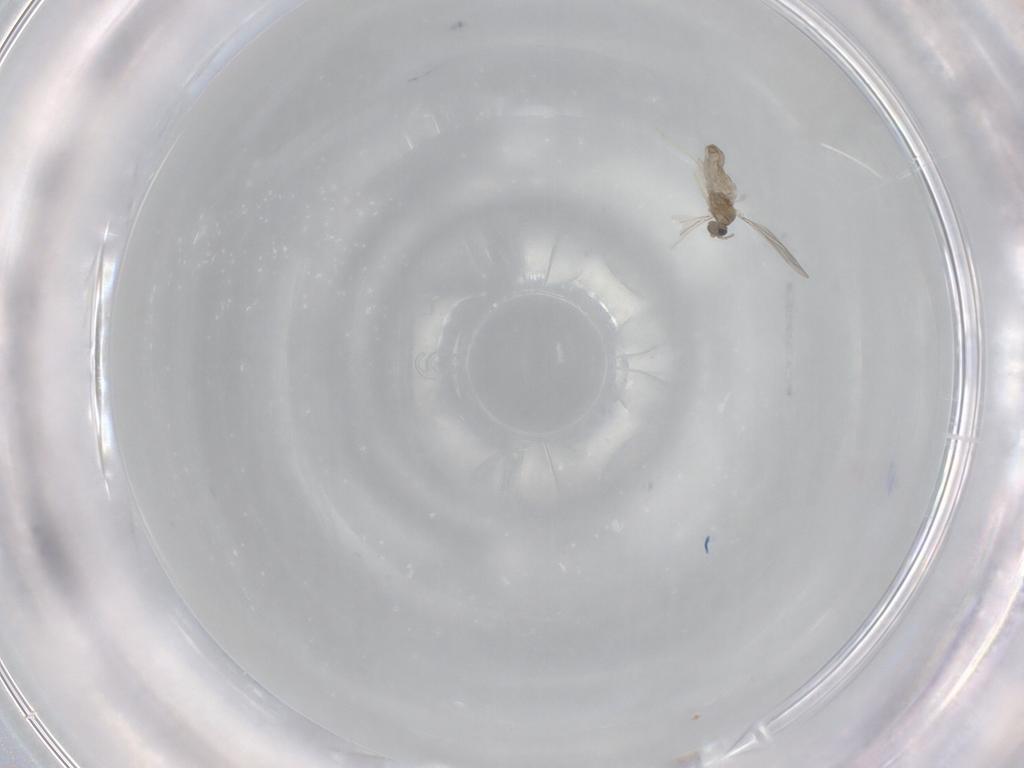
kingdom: Animalia
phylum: Arthropoda
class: Insecta
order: Diptera
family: Cecidomyiidae
